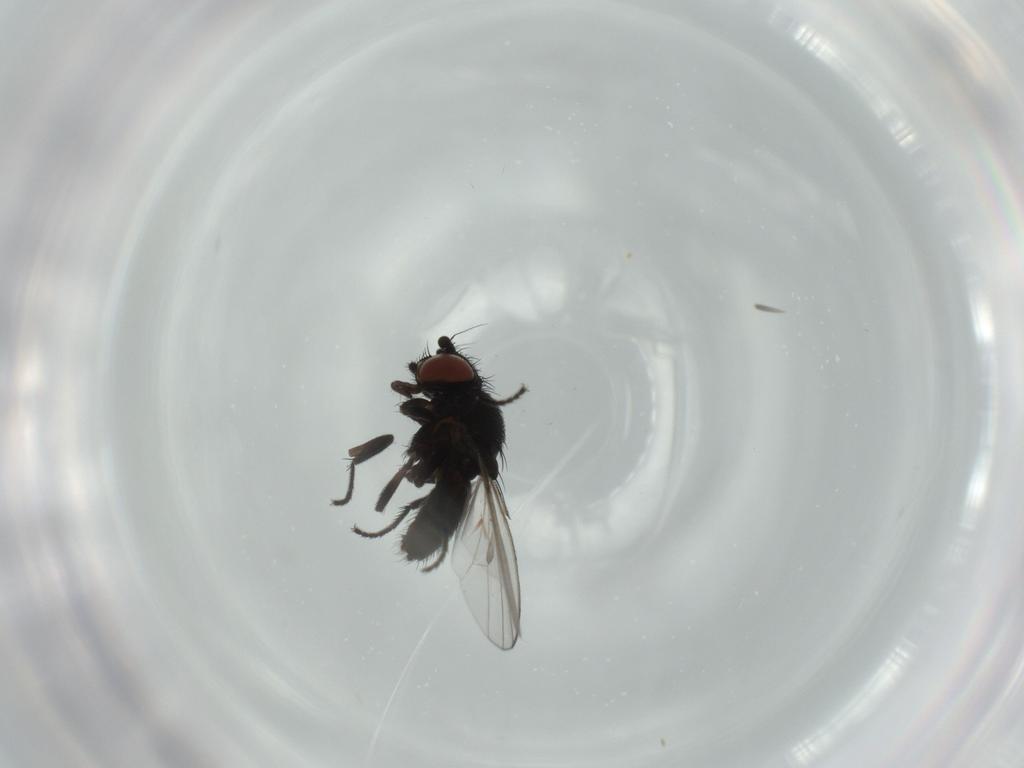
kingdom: Animalia
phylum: Arthropoda
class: Insecta
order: Diptera
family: Milichiidae
